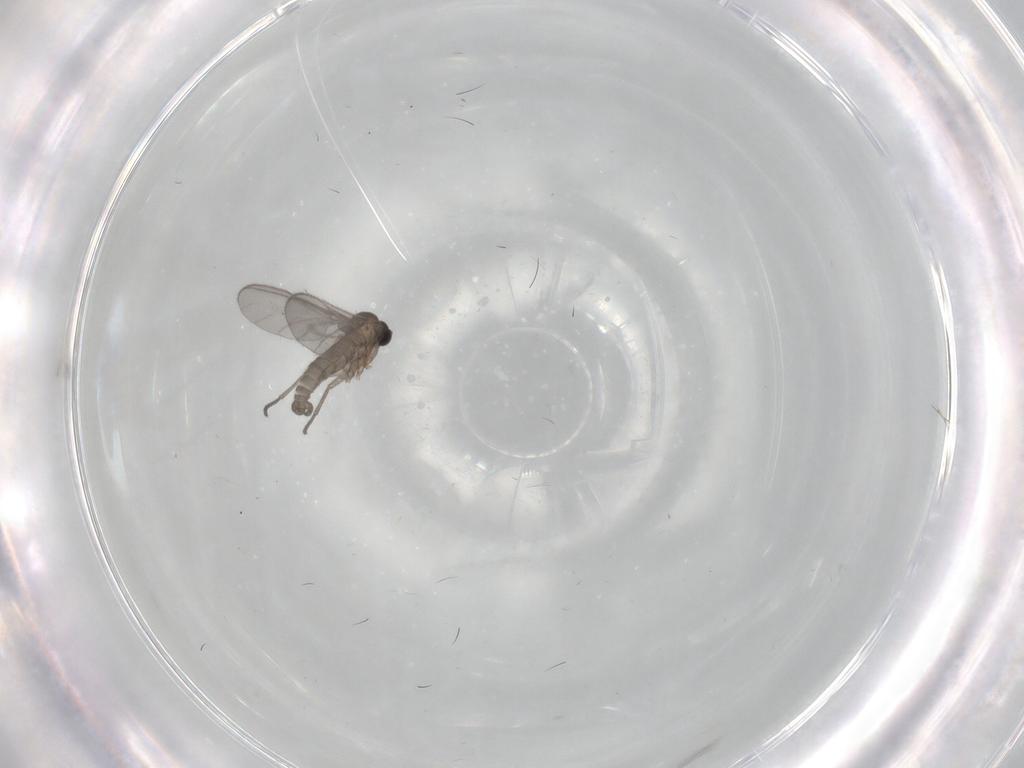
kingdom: Animalia
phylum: Arthropoda
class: Insecta
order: Diptera
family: Sciaridae
